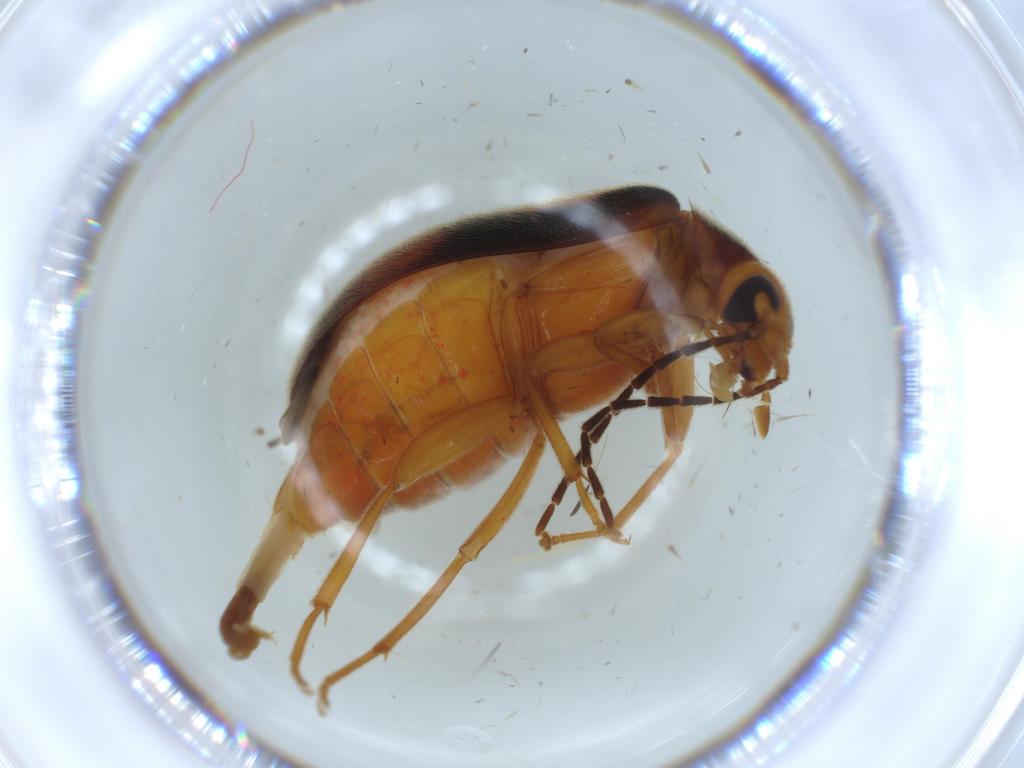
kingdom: Animalia
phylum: Arthropoda
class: Insecta
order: Coleoptera
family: Scraptiidae
